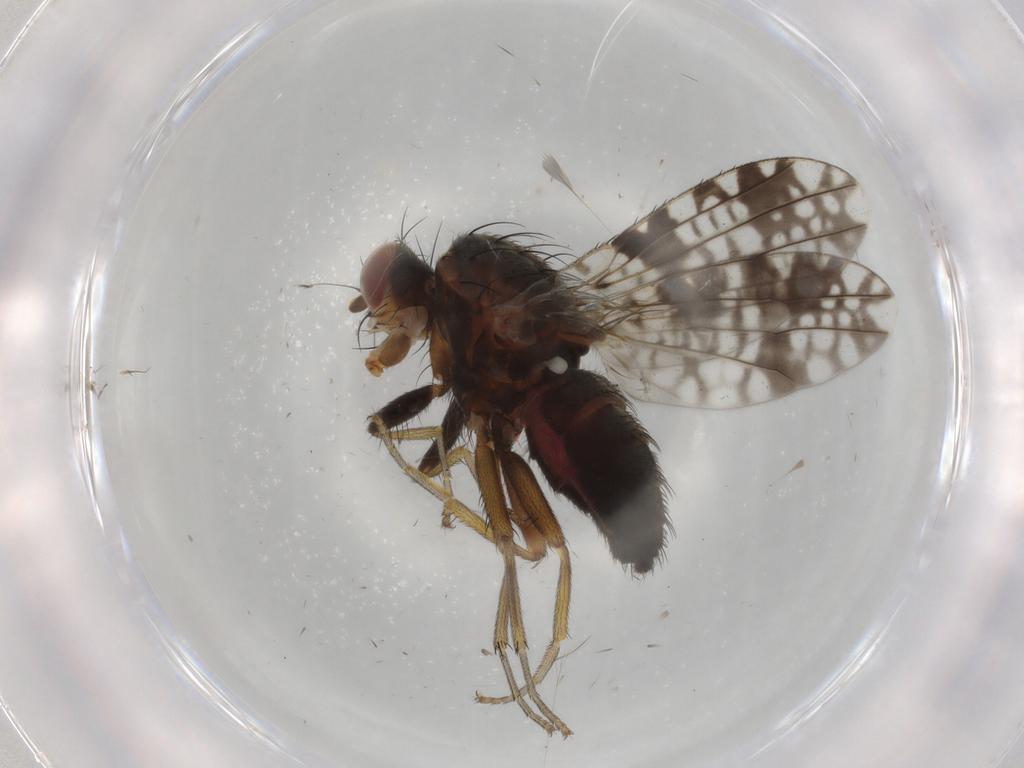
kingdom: Animalia
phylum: Arthropoda
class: Insecta
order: Diptera
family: Tephritidae
